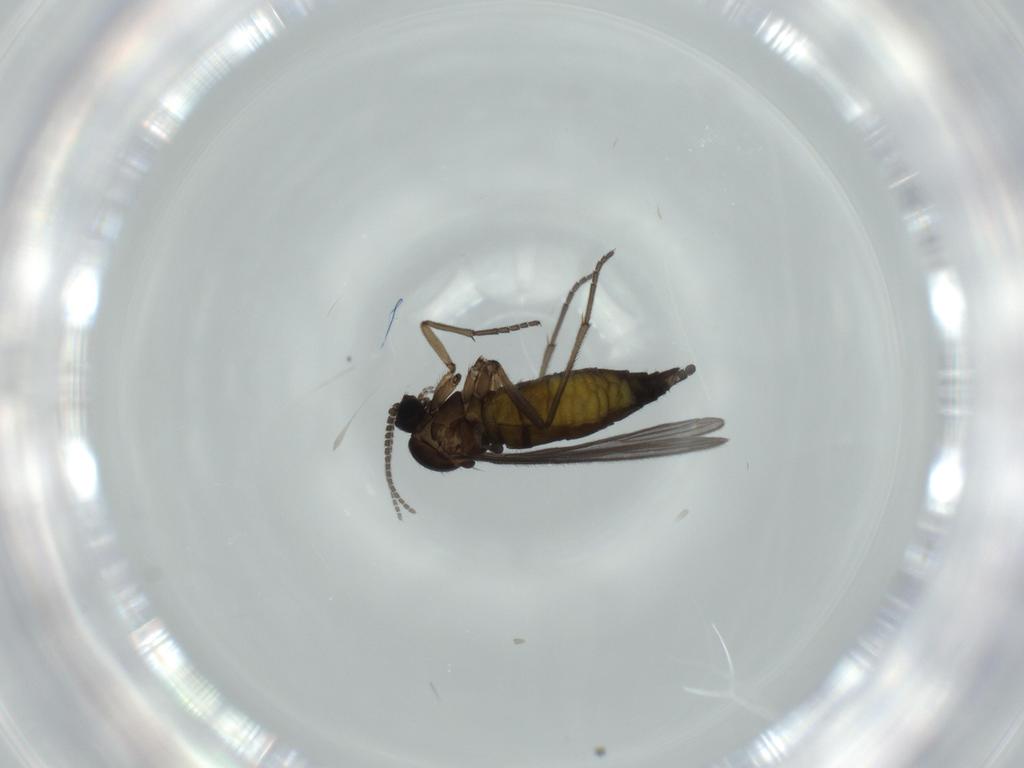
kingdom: Animalia
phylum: Arthropoda
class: Insecta
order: Diptera
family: Sciaridae
